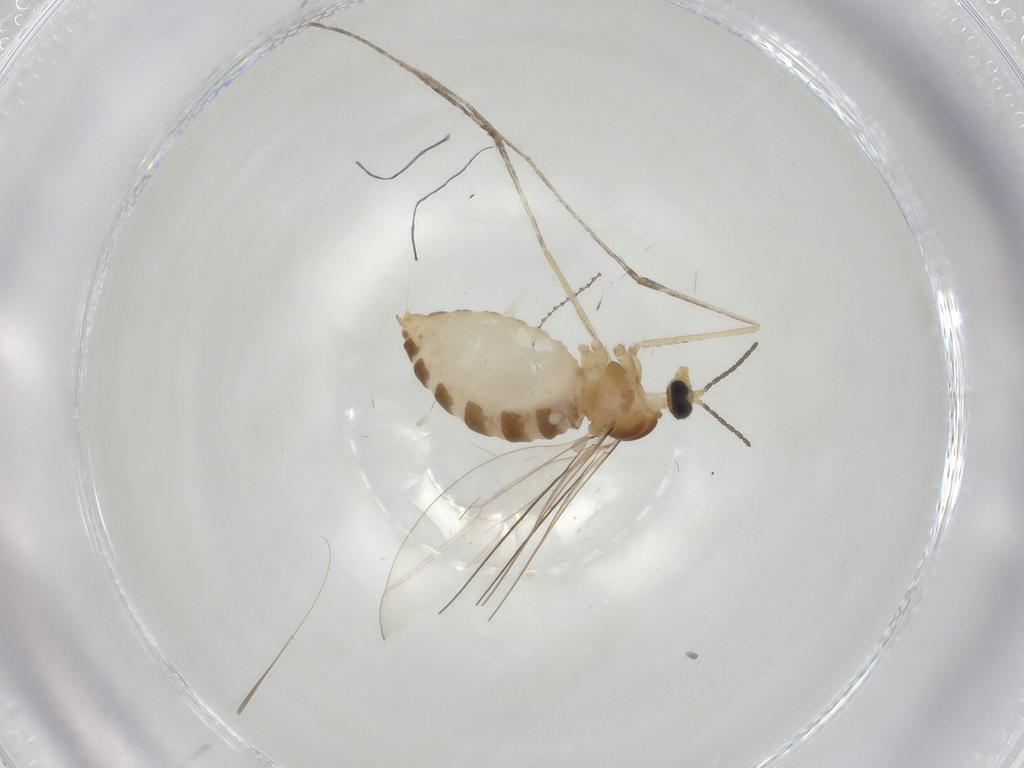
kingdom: Animalia
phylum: Arthropoda
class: Insecta
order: Diptera
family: Cecidomyiidae
